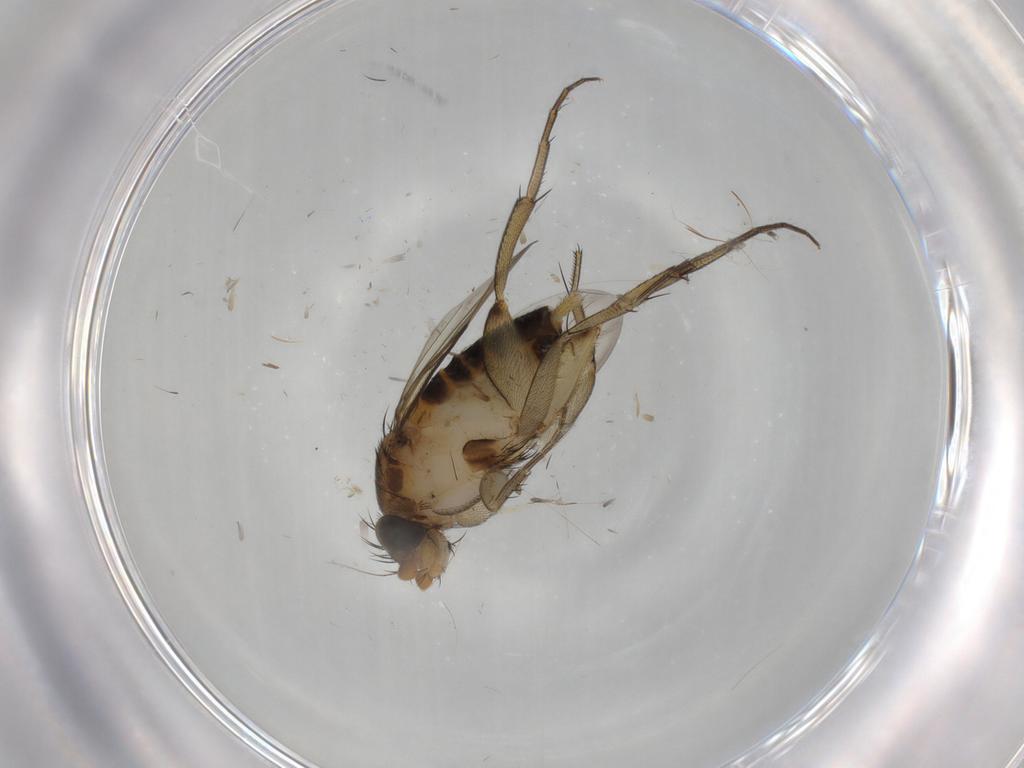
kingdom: Animalia
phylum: Arthropoda
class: Insecta
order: Diptera
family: Phoridae
